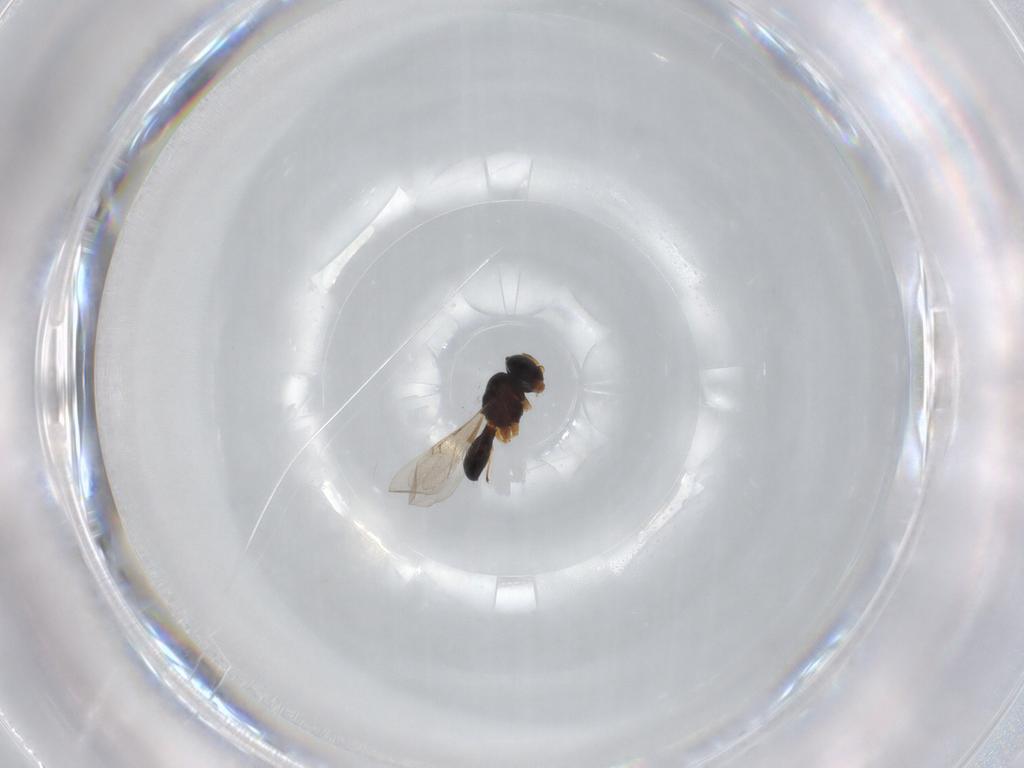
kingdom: Animalia
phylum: Arthropoda
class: Insecta
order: Hymenoptera
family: Scelionidae
